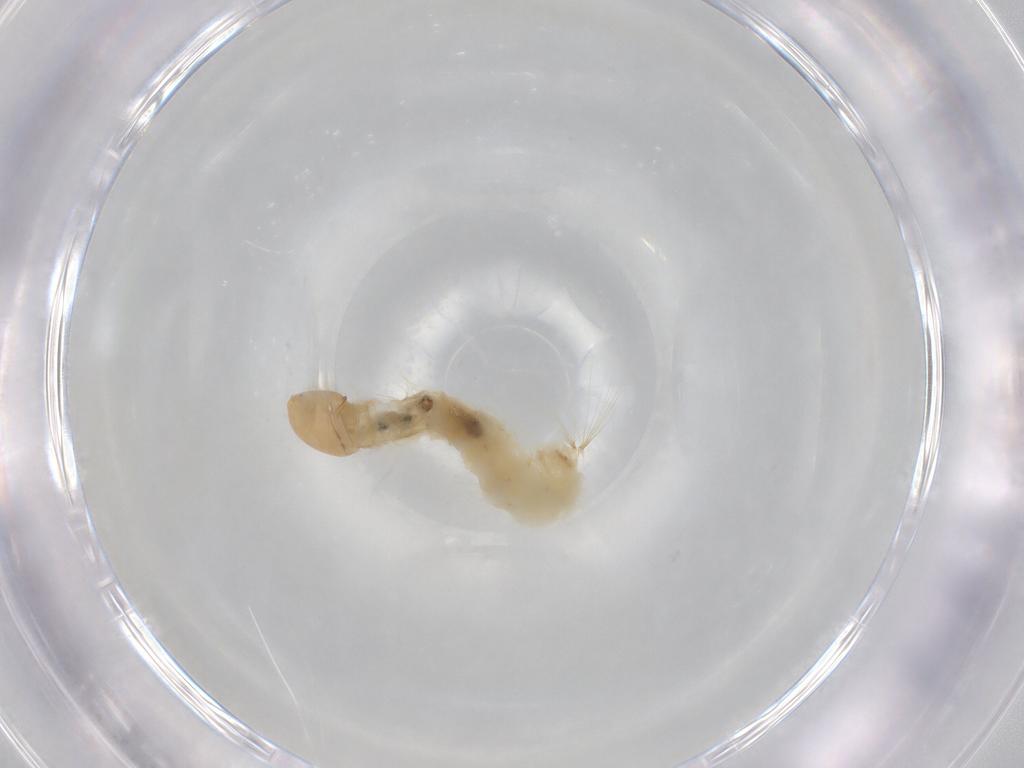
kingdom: Animalia
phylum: Arthropoda
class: Insecta
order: Diptera
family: Chironomidae
